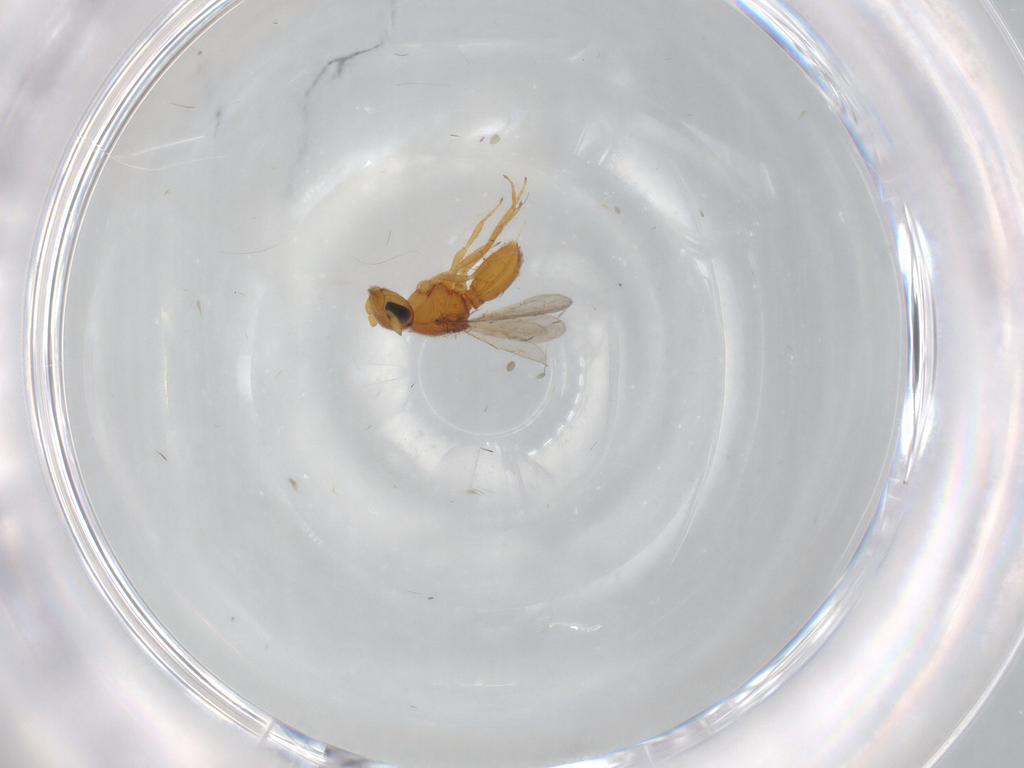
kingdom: Animalia
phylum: Arthropoda
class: Insecta
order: Hymenoptera
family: Scelionidae
